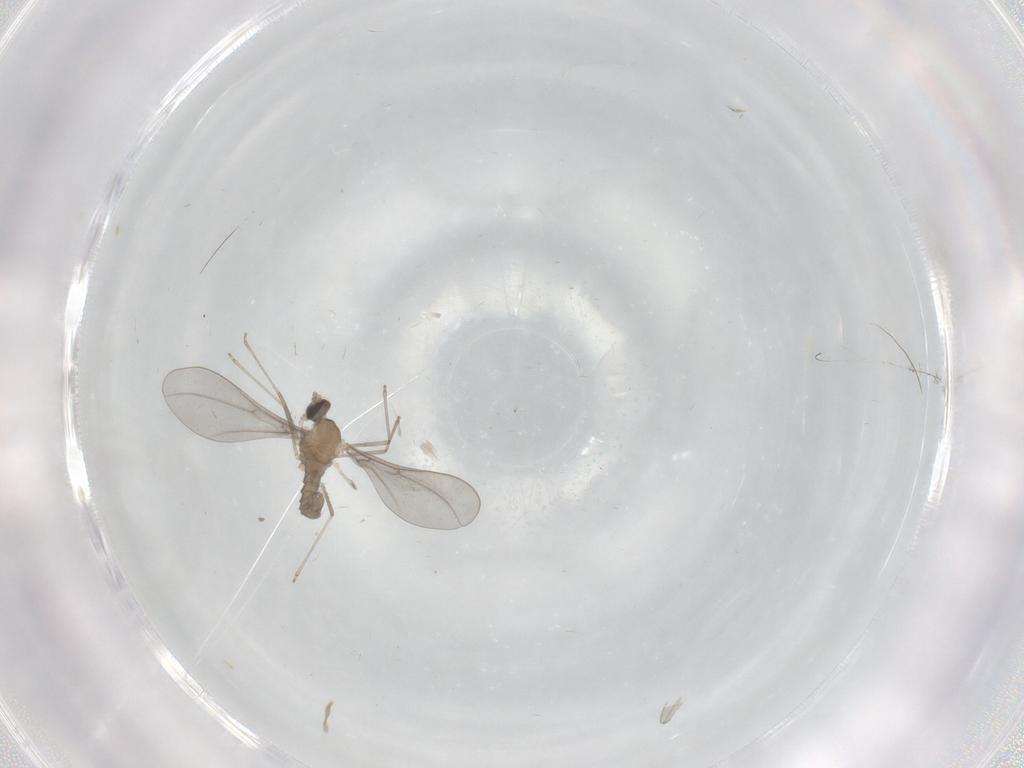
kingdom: Animalia
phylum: Arthropoda
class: Insecta
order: Diptera
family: Cecidomyiidae
